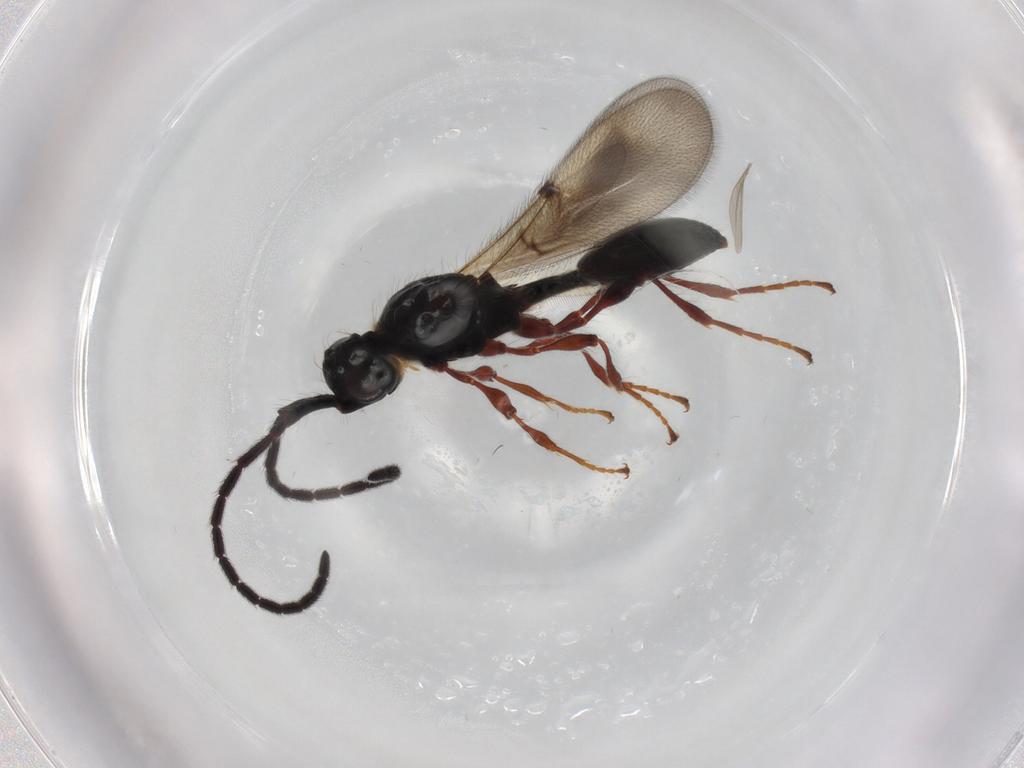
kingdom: Animalia
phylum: Arthropoda
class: Insecta
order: Hymenoptera
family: Diapriidae
